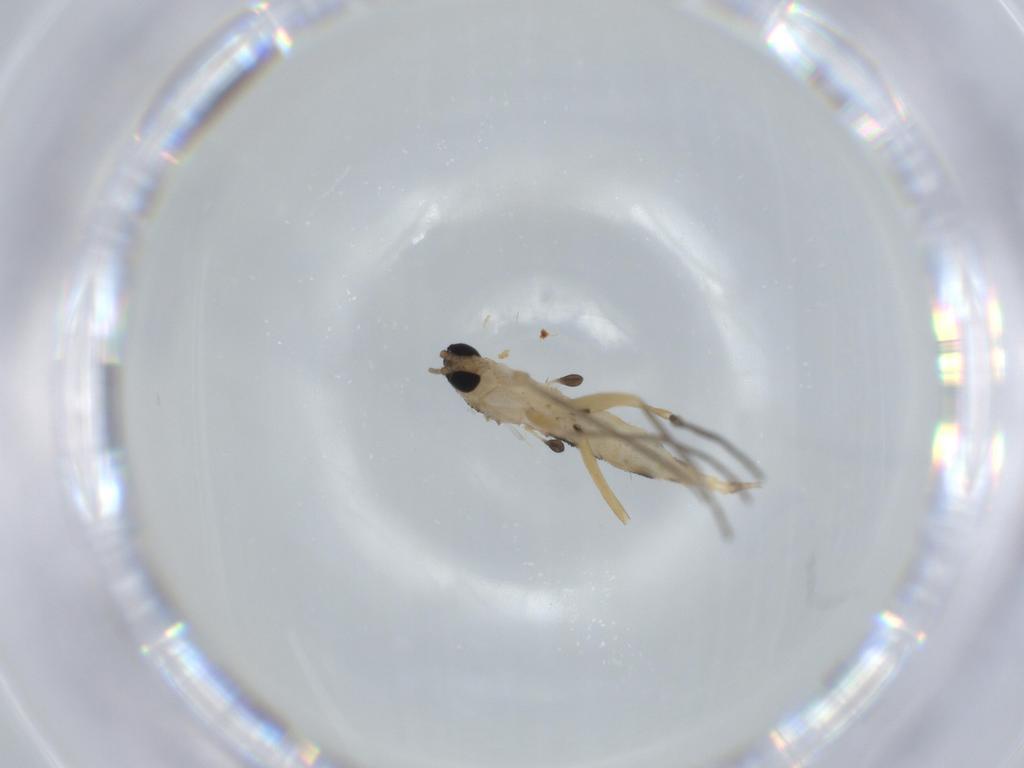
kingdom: Animalia
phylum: Arthropoda
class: Insecta
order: Diptera
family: Sciaridae
